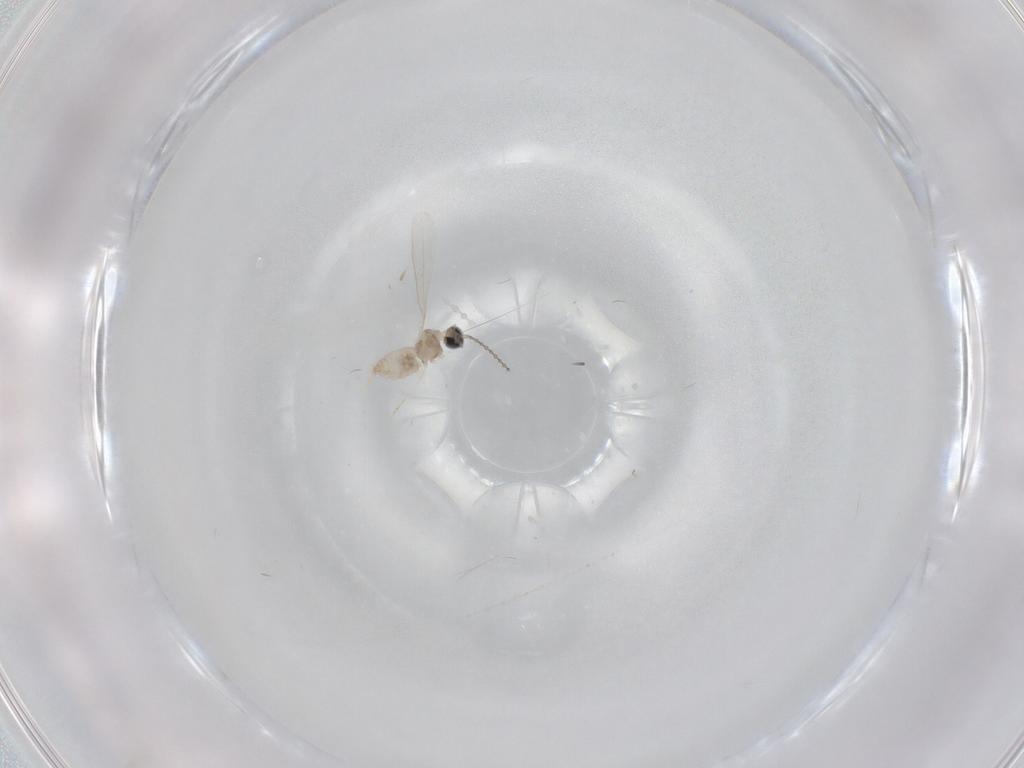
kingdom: Animalia
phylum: Arthropoda
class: Insecta
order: Diptera
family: Cecidomyiidae
